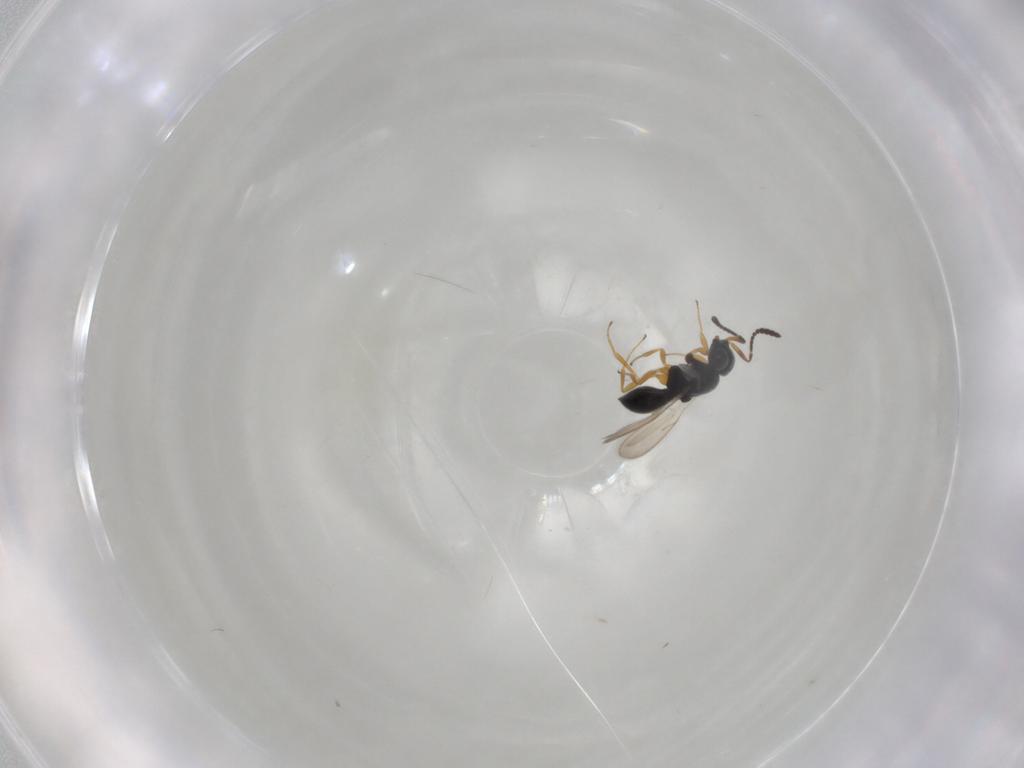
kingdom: Animalia
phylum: Arthropoda
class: Insecta
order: Hymenoptera
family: Scelionidae
